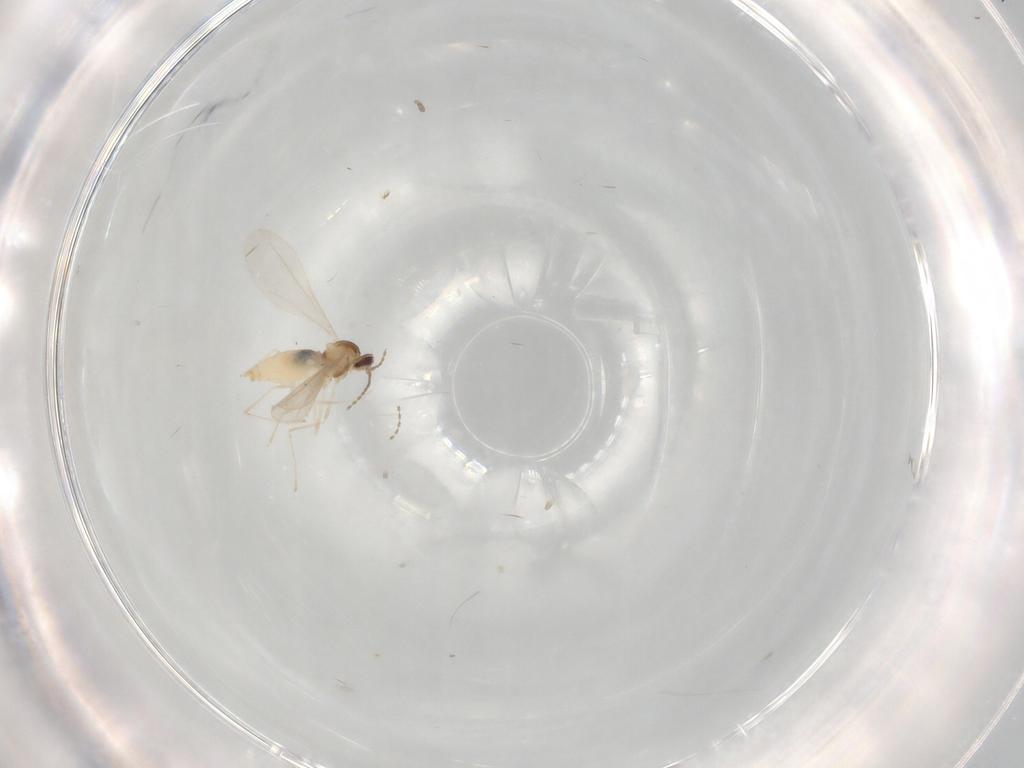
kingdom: Animalia
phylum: Arthropoda
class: Insecta
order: Diptera
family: Cecidomyiidae
